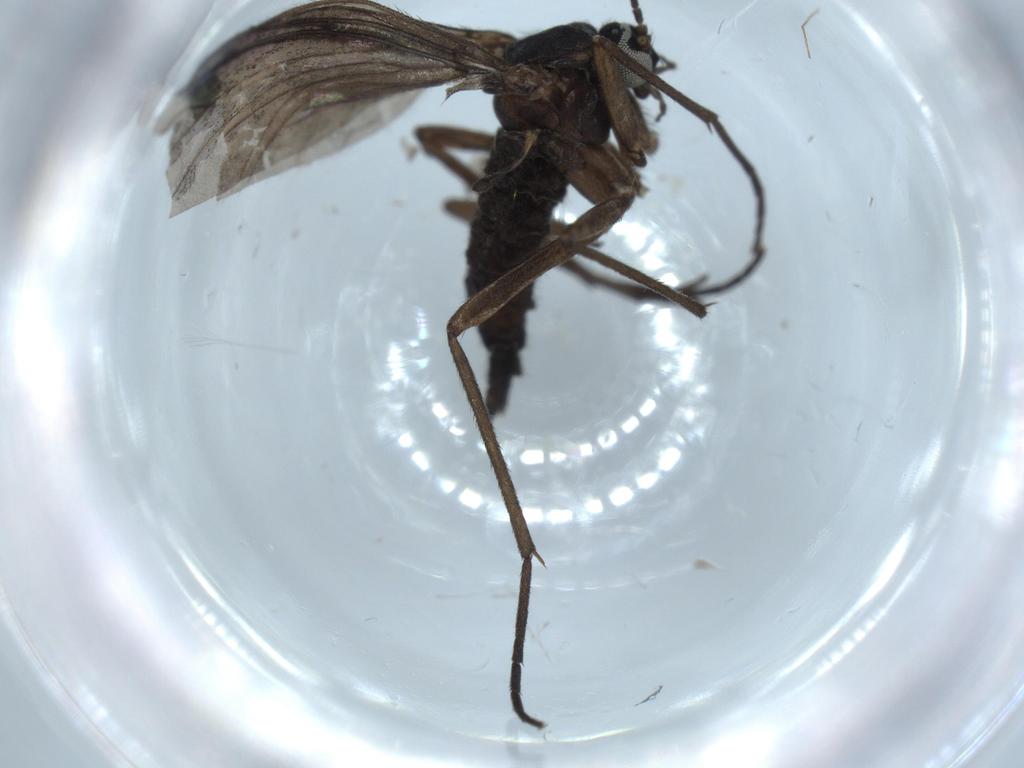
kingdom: Animalia
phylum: Arthropoda
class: Insecta
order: Diptera
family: Sciaridae
